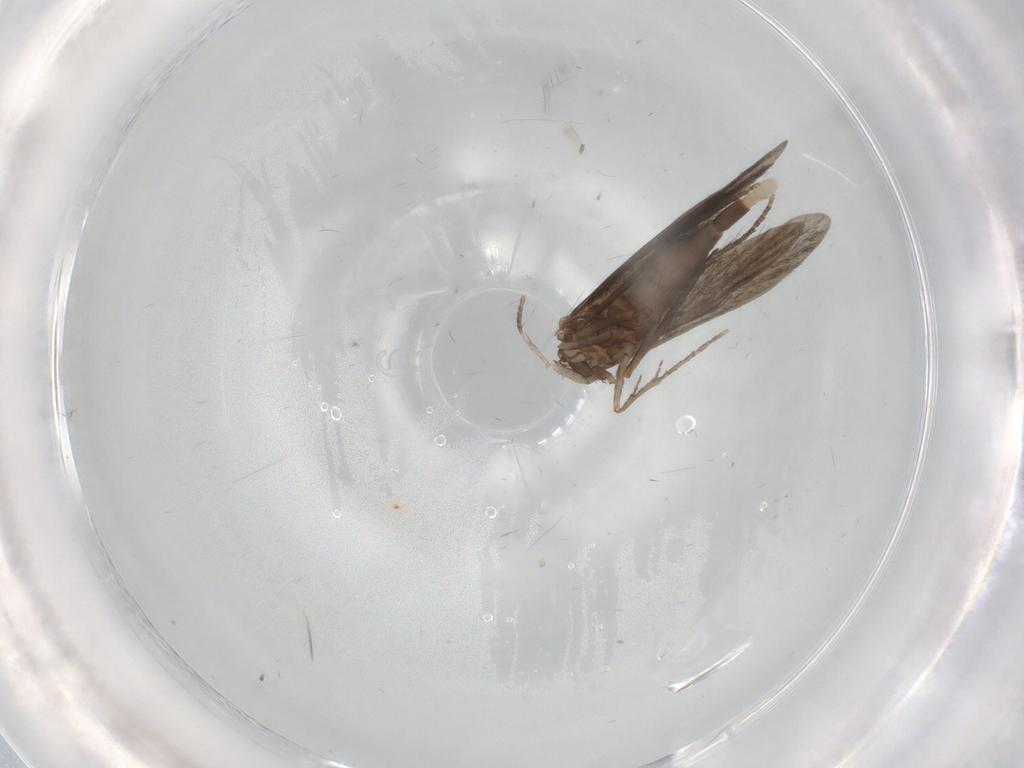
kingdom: Animalia
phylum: Arthropoda
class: Insecta
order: Trichoptera
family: Xiphocentronidae
